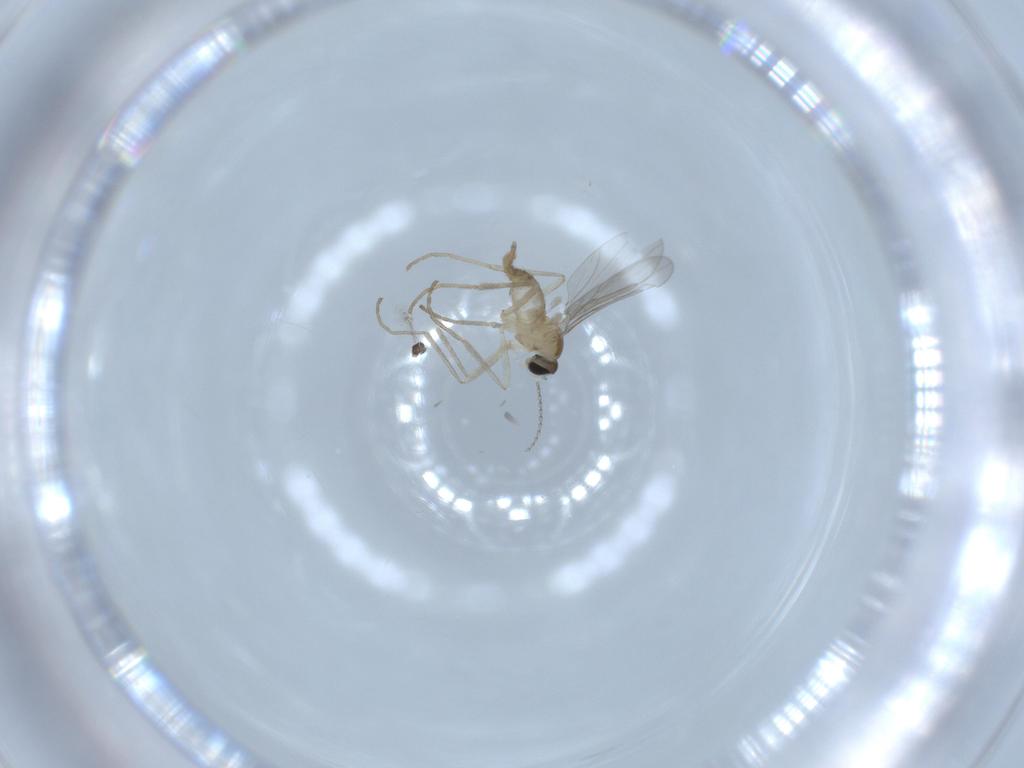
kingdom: Animalia
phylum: Arthropoda
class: Insecta
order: Diptera
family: Cecidomyiidae
